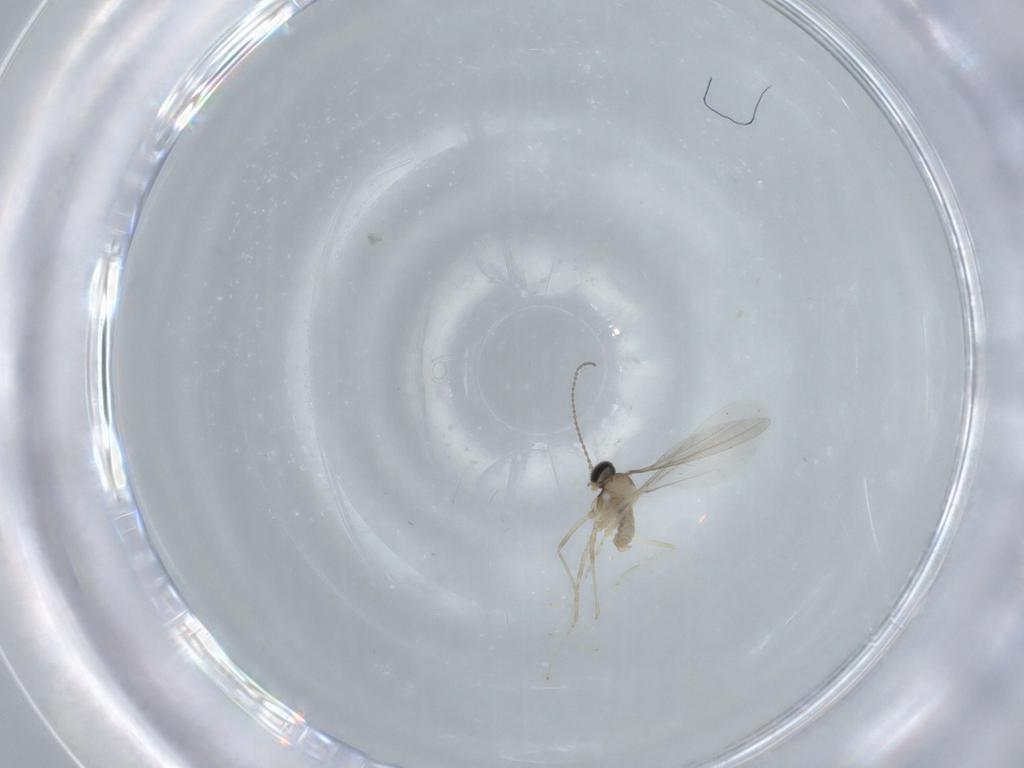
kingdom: Animalia
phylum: Arthropoda
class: Insecta
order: Diptera
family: Cecidomyiidae
